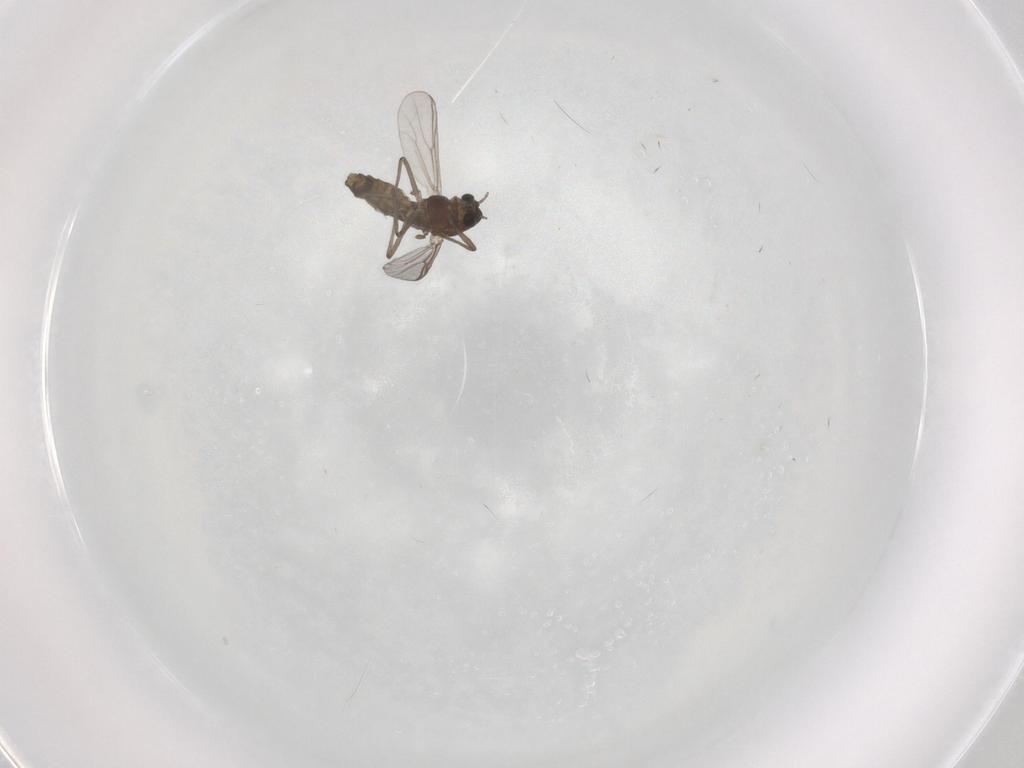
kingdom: Animalia
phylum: Arthropoda
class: Insecta
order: Diptera
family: Chironomidae
